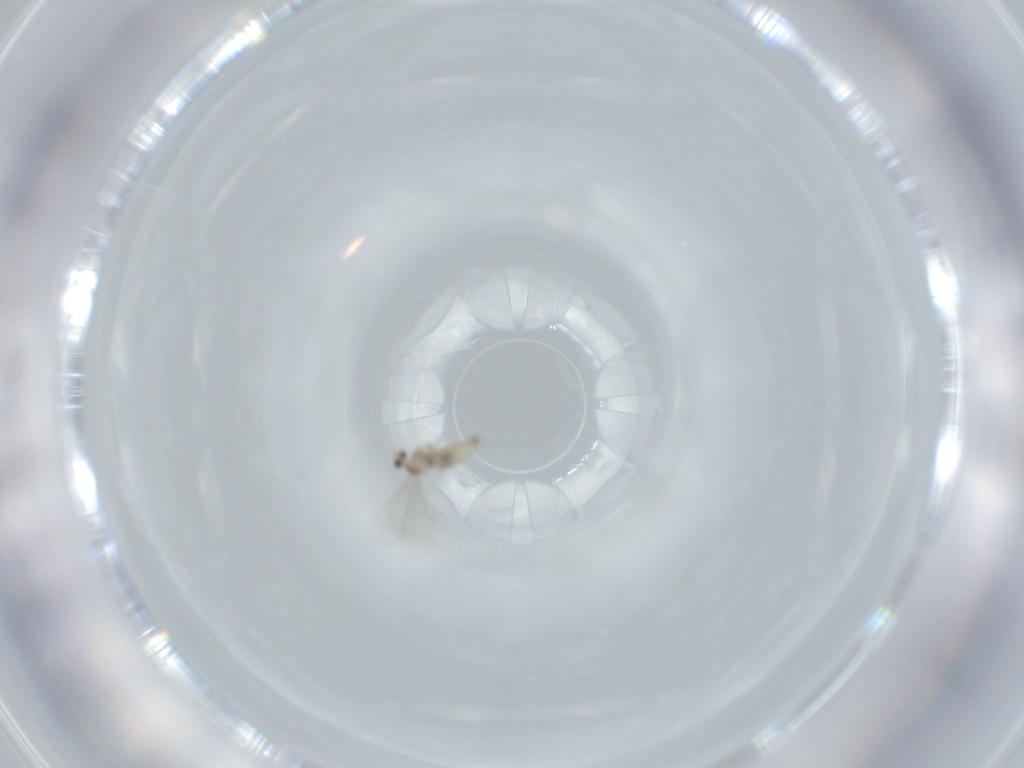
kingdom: Animalia
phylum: Arthropoda
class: Insecta
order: Diptera
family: Cecidomyiidae
